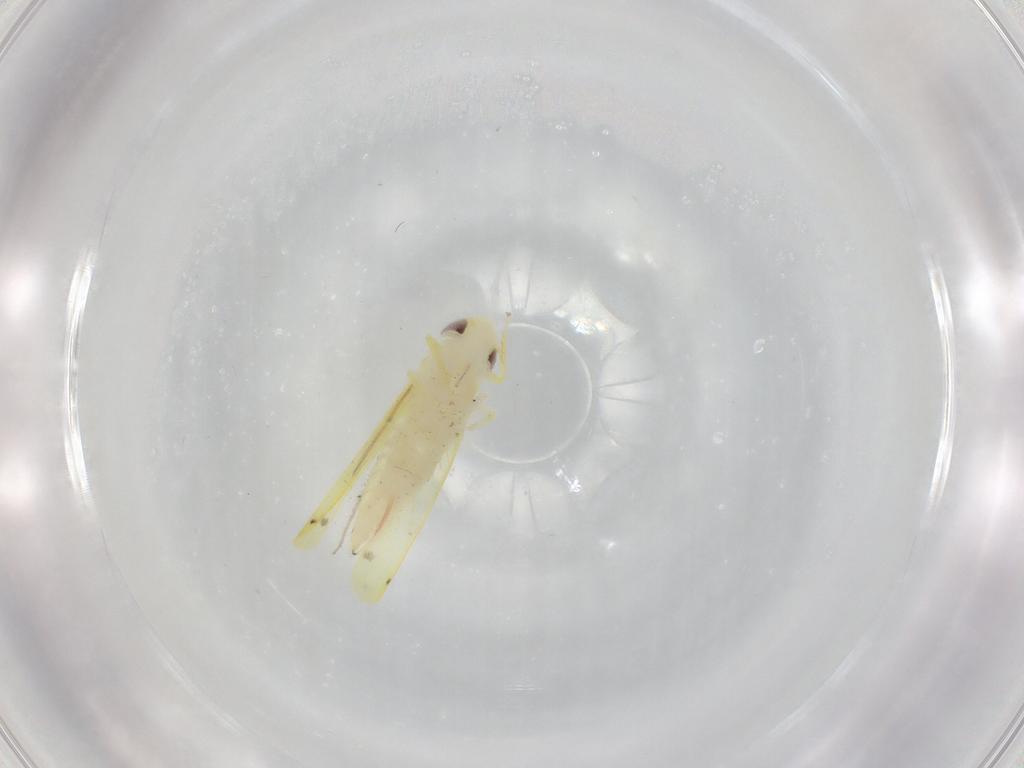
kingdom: Animalia
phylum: Arthropoda
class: Insecta
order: Hemiptera
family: Cicadellidae
